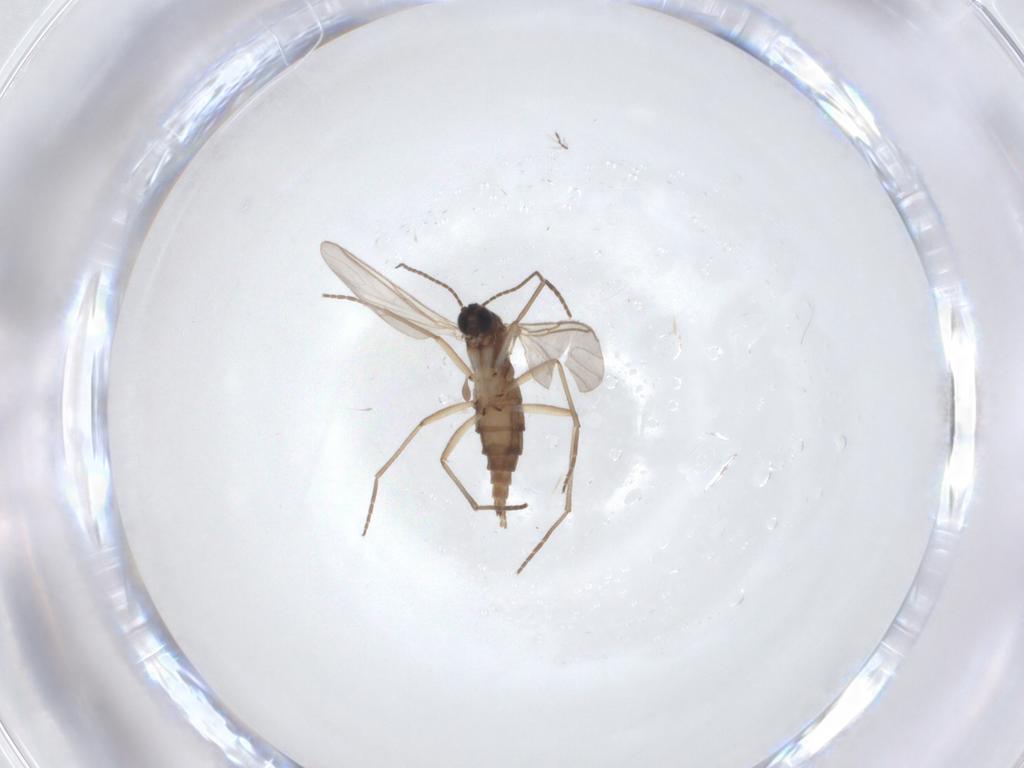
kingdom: Animalia
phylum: Arthropoda
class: Insecta
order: Diptera
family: Sciaridae
